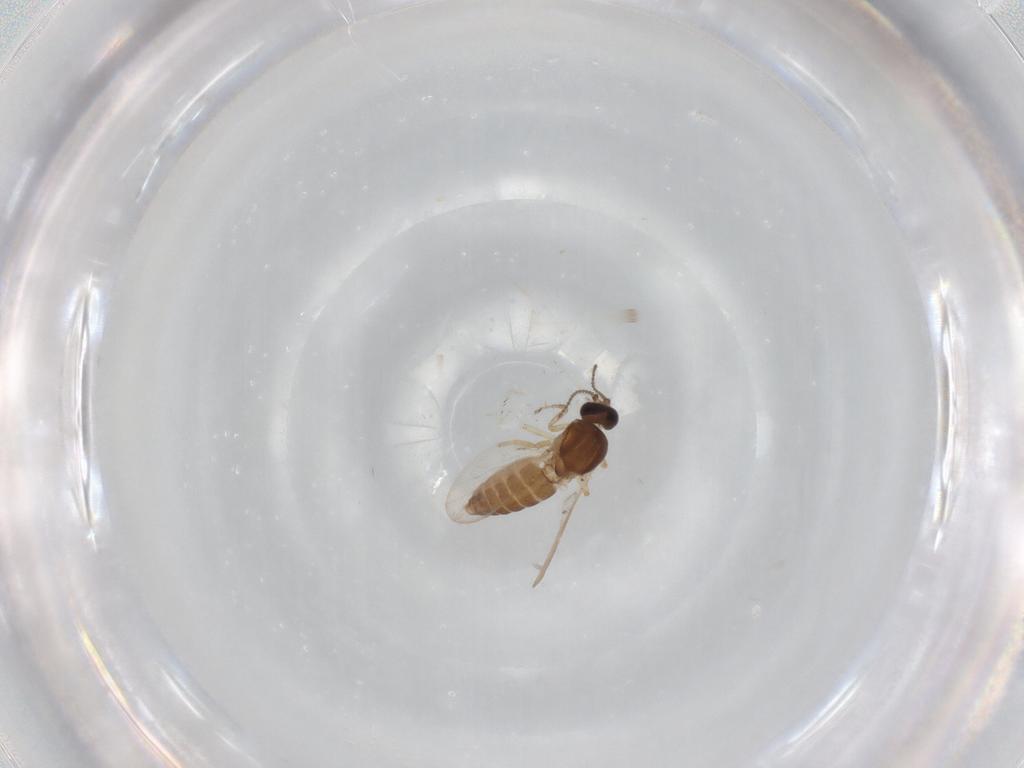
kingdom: Animalia
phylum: Arthropoda
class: Insecta
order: Diptera
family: Ceratopogonidae
